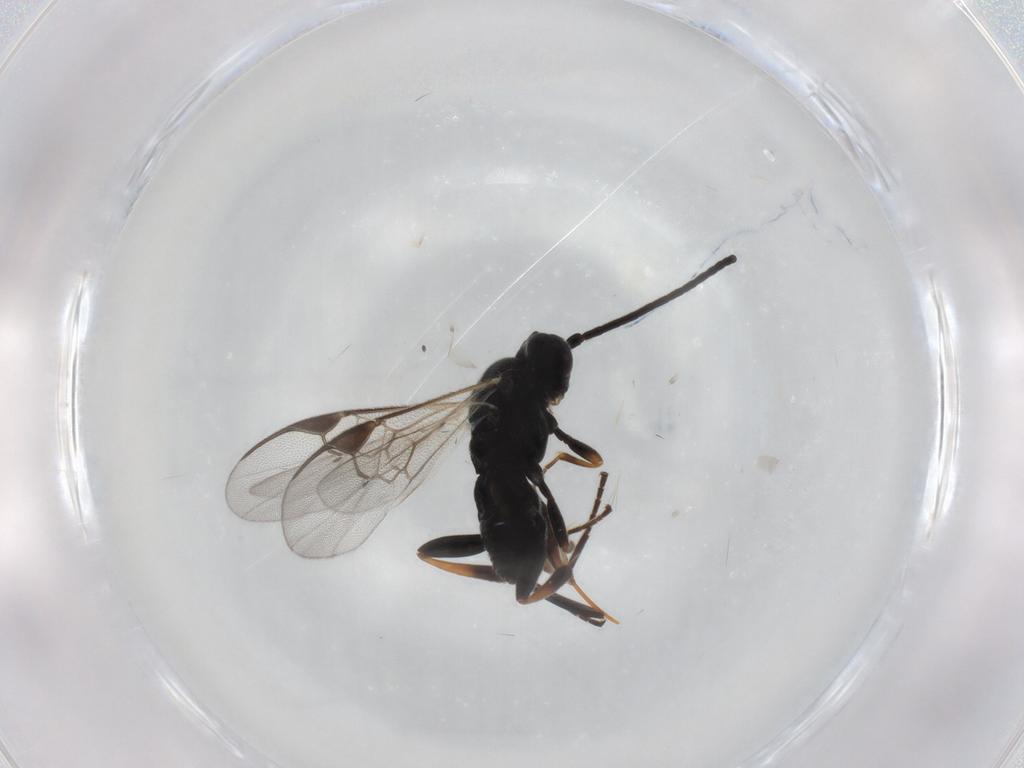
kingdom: Animalia
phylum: Arthropoda
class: Insecta
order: Hymenoptera
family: Braconidae
